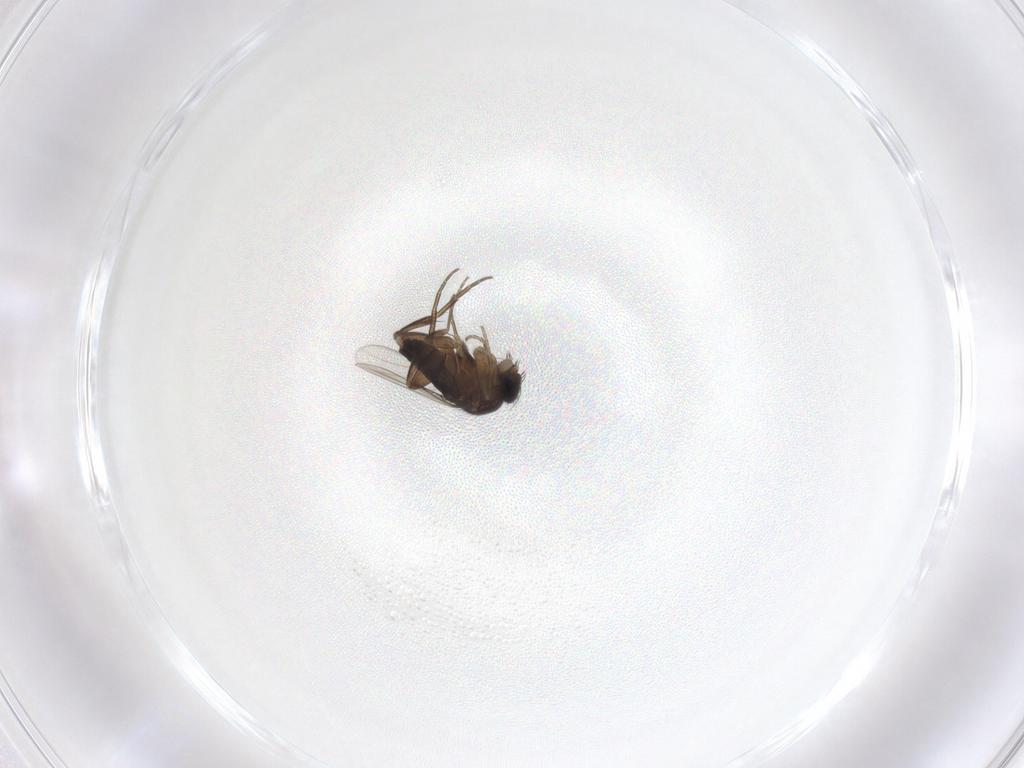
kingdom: Animalia
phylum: Arthropoda
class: Insecta
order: Diptera
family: Phoridae
